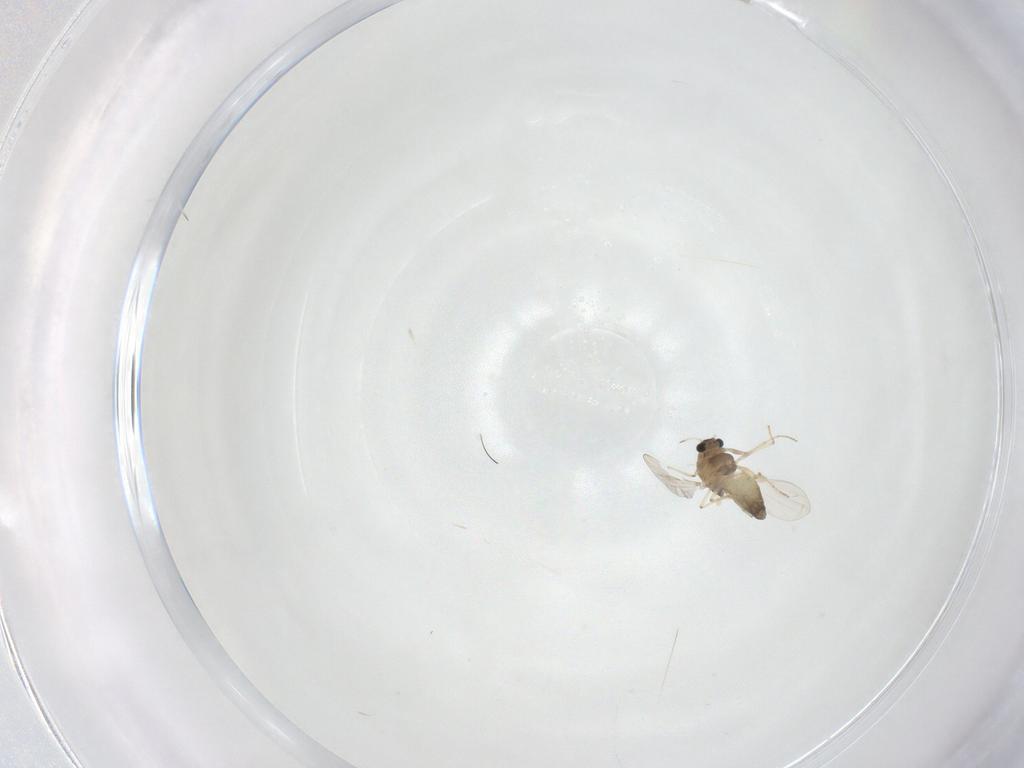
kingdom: Animalia
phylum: Arthropoda
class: Insecta
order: Diptera
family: Chironomidae
